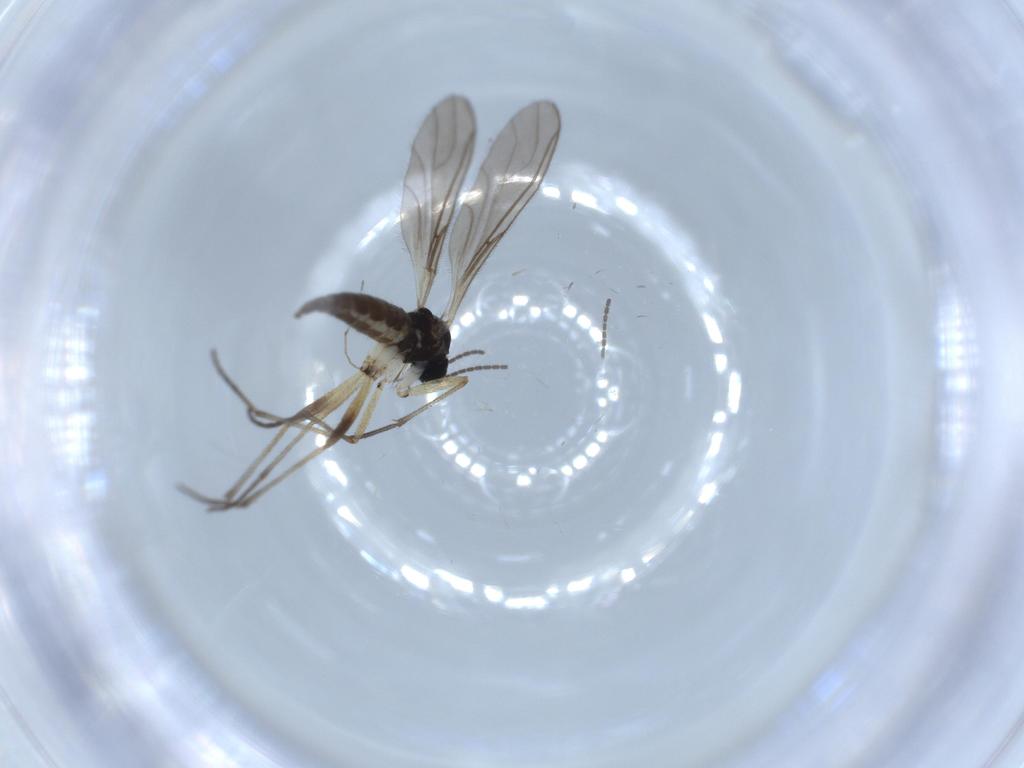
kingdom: Animalia
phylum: Arthropoda
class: Insecta
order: Diptera
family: Sciaridae
